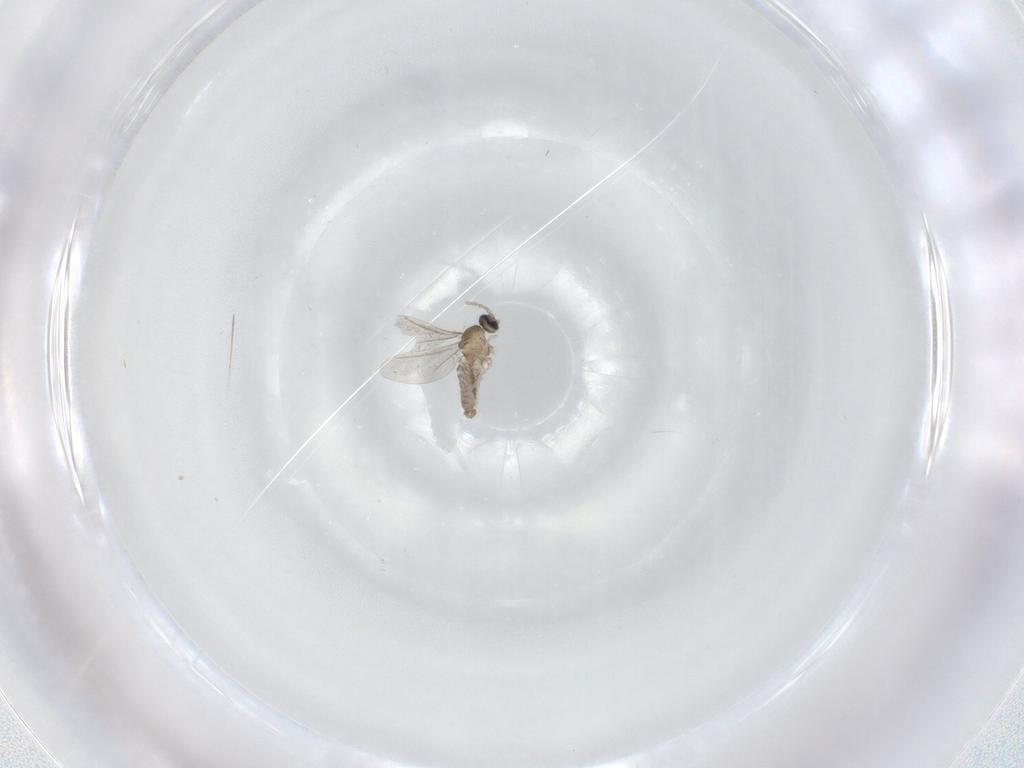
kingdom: Animalia
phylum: Arthropoda
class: Insecta
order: Diptera
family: Cecidomyiidae
